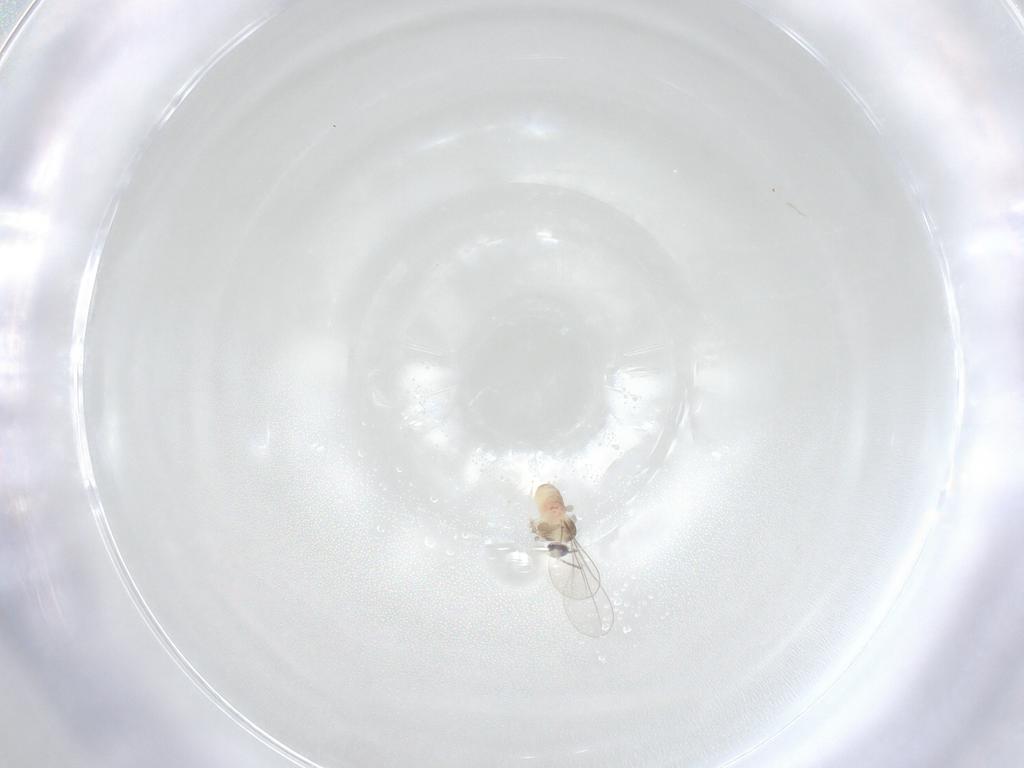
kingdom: Animalia
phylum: Arthropoda
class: Insecta
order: Diptera
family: Cecidomyiidae
